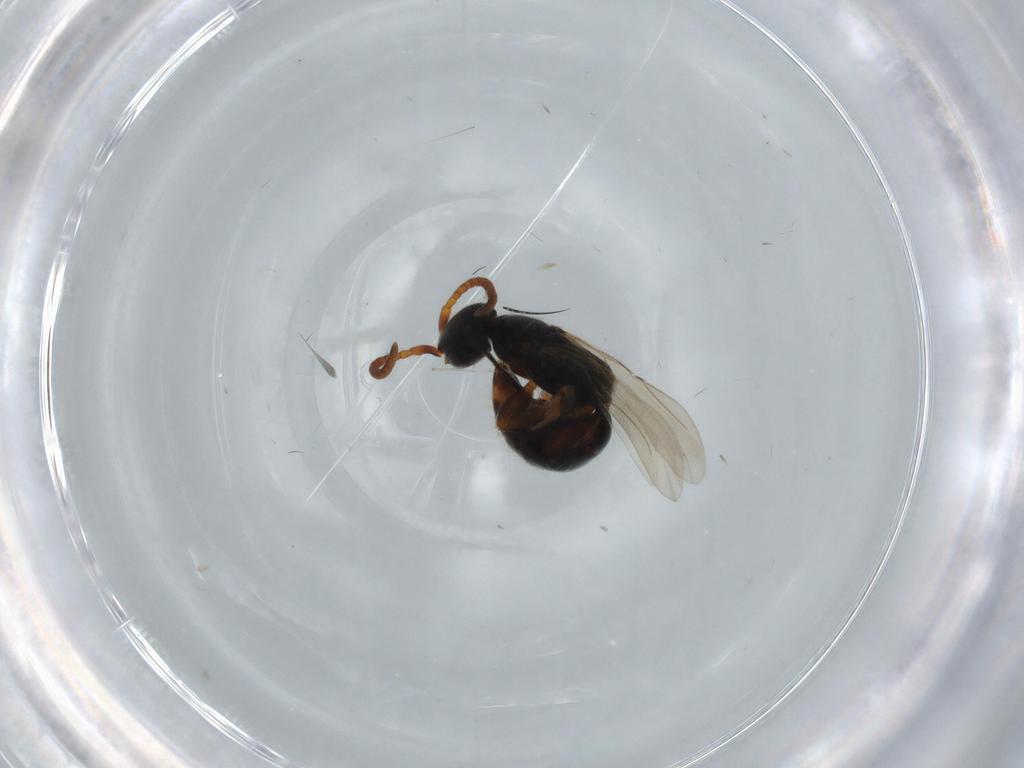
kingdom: Animalia
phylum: Arthropoda
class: Insecta
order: Hymenoptera
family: Bethylidae
